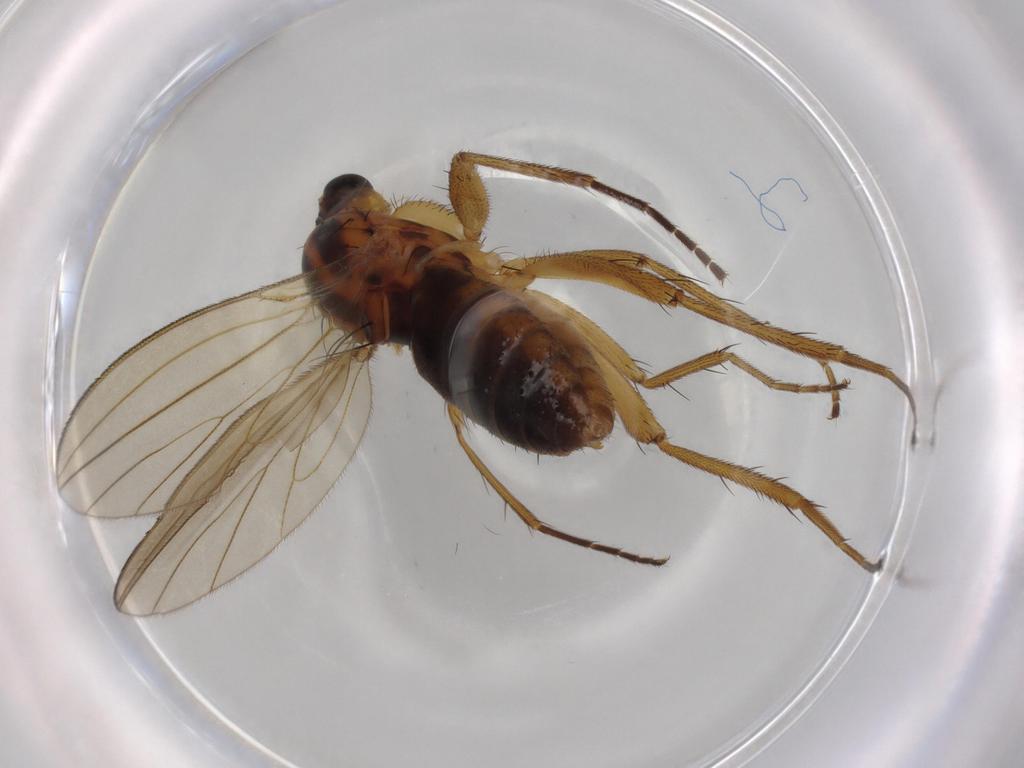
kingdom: Animalia
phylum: Arthropoda
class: Insecta
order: Diptera
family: Lonchopteridae
